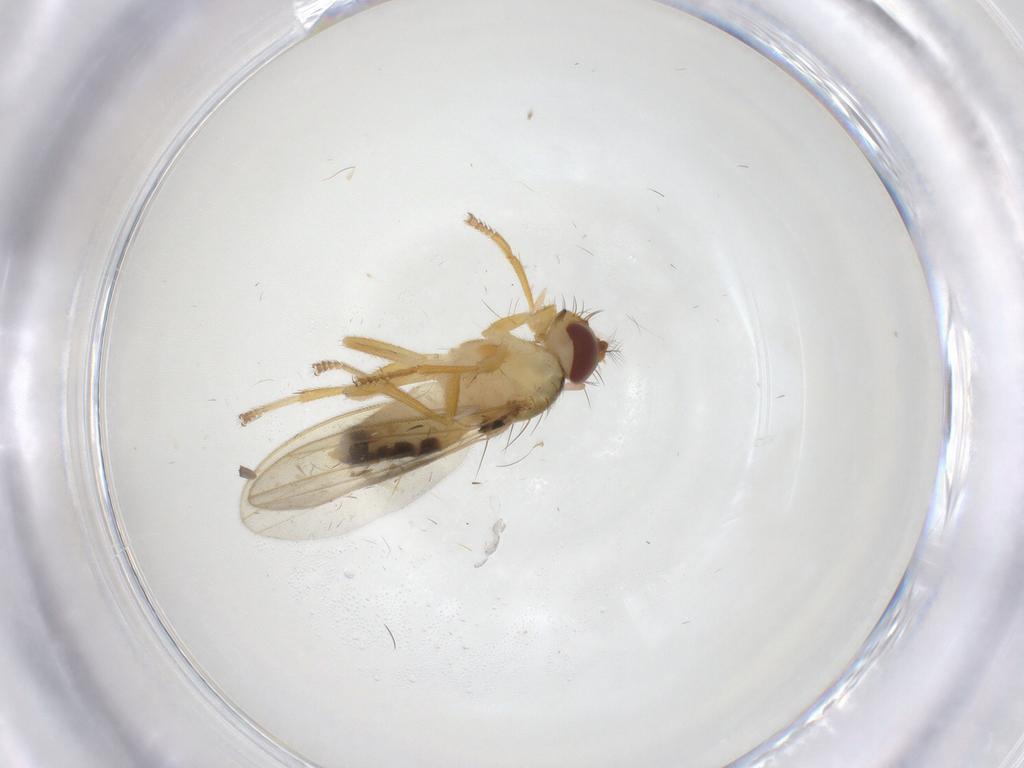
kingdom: Animalia
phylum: Arthropoda
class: Insecta
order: Diptera
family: Periscelididae
